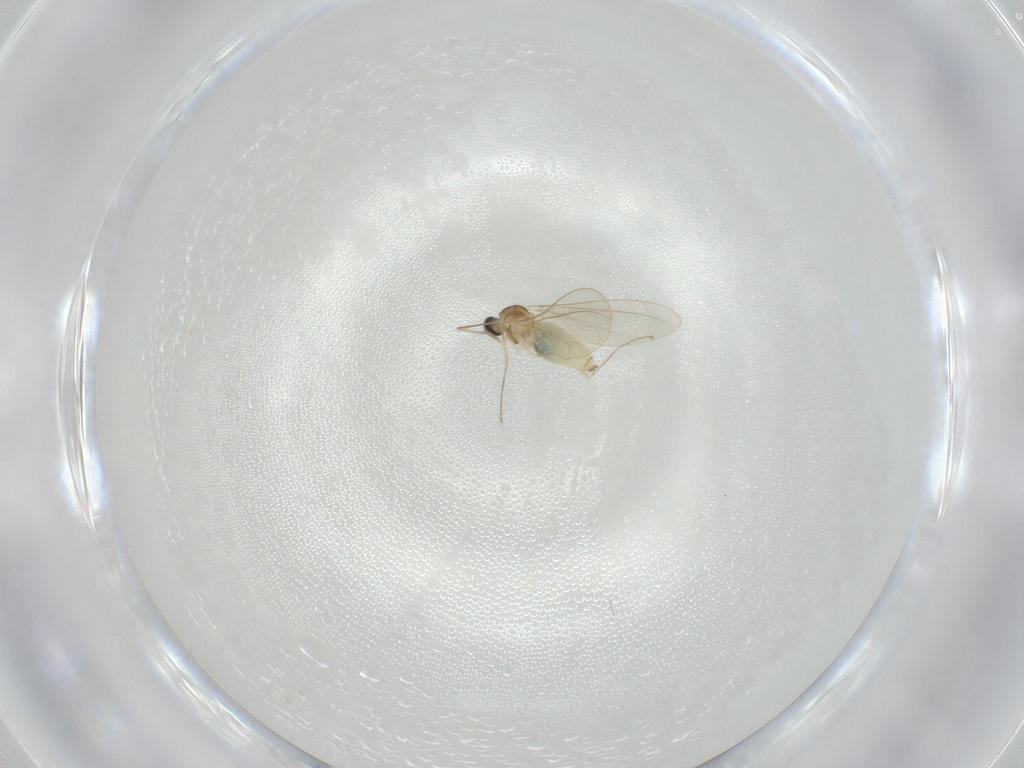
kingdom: Animalia
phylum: Arthropoda
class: Insecta
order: Diptera
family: Cecidomyiidae
